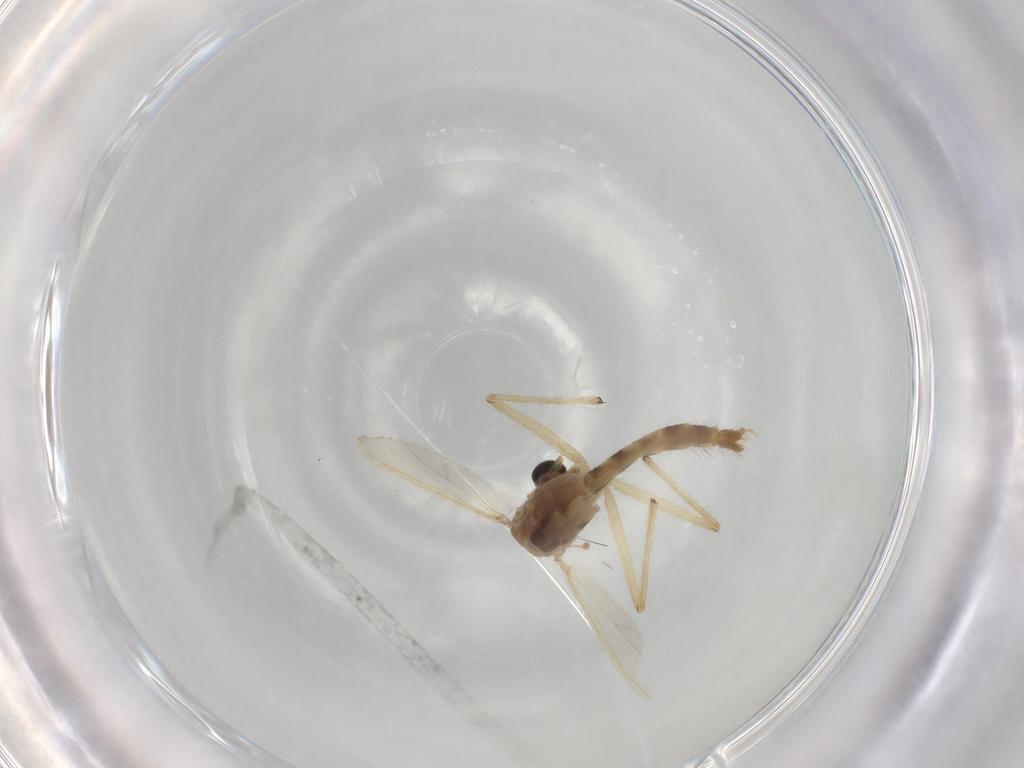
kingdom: Animalia
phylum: Arthropoda
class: Insecta
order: Diptera
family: Chironomidae
